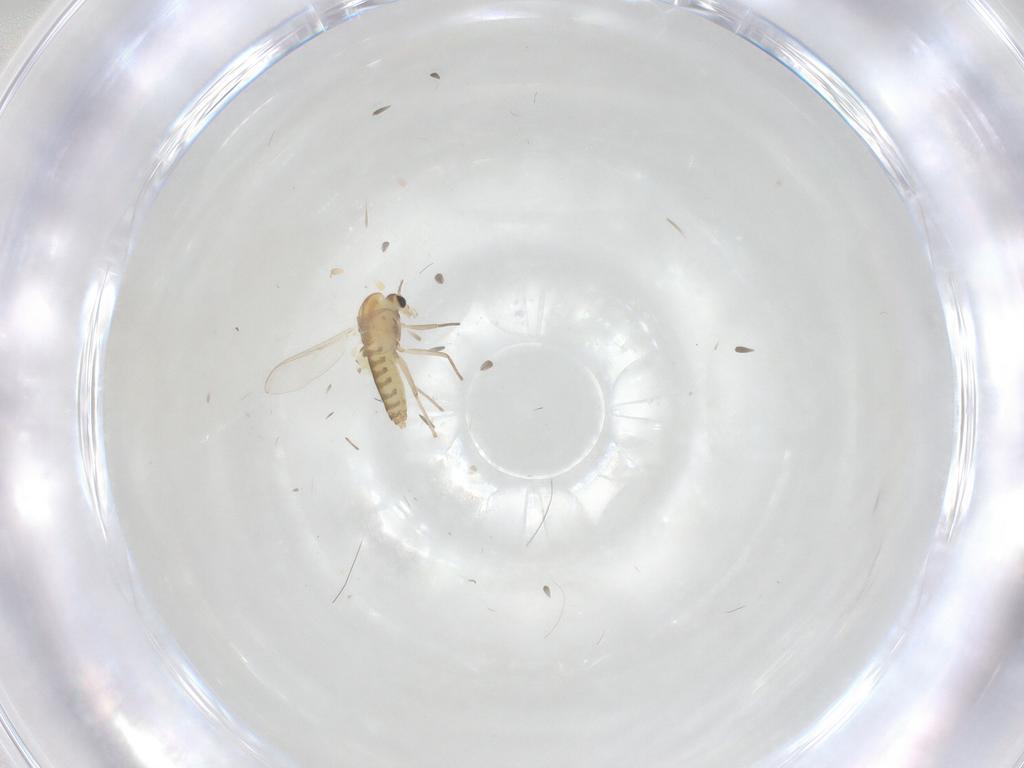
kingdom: Animalia
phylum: Arthropoda
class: Insecta
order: Diptera
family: Chironomidae
